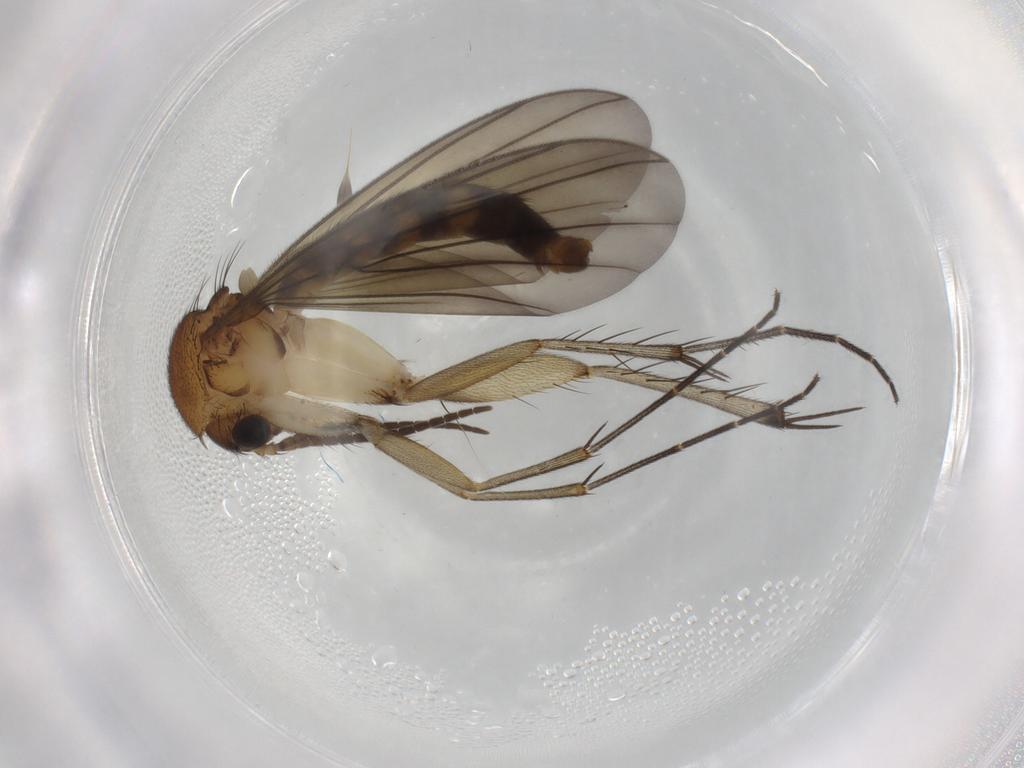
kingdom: Animalia
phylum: Arthropoda
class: Insecta
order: Diptera
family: Mycetophilidae
